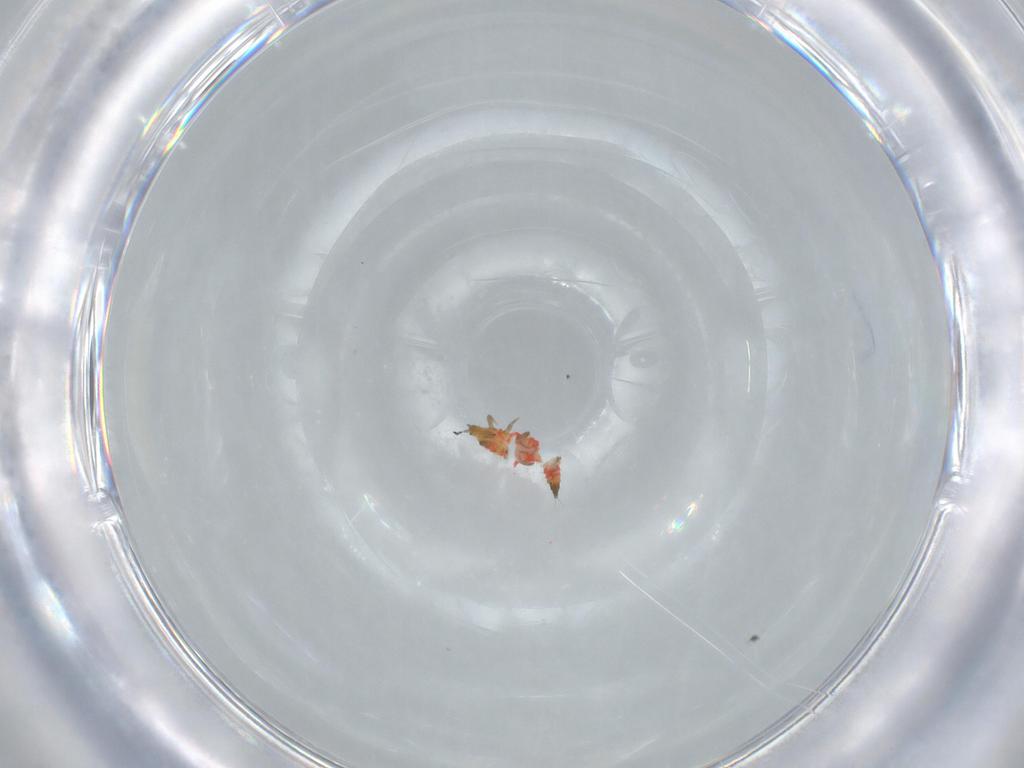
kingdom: Animalia
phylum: Arthropoda
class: Insecta
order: Thysanoptera
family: Phlaeothripidae
